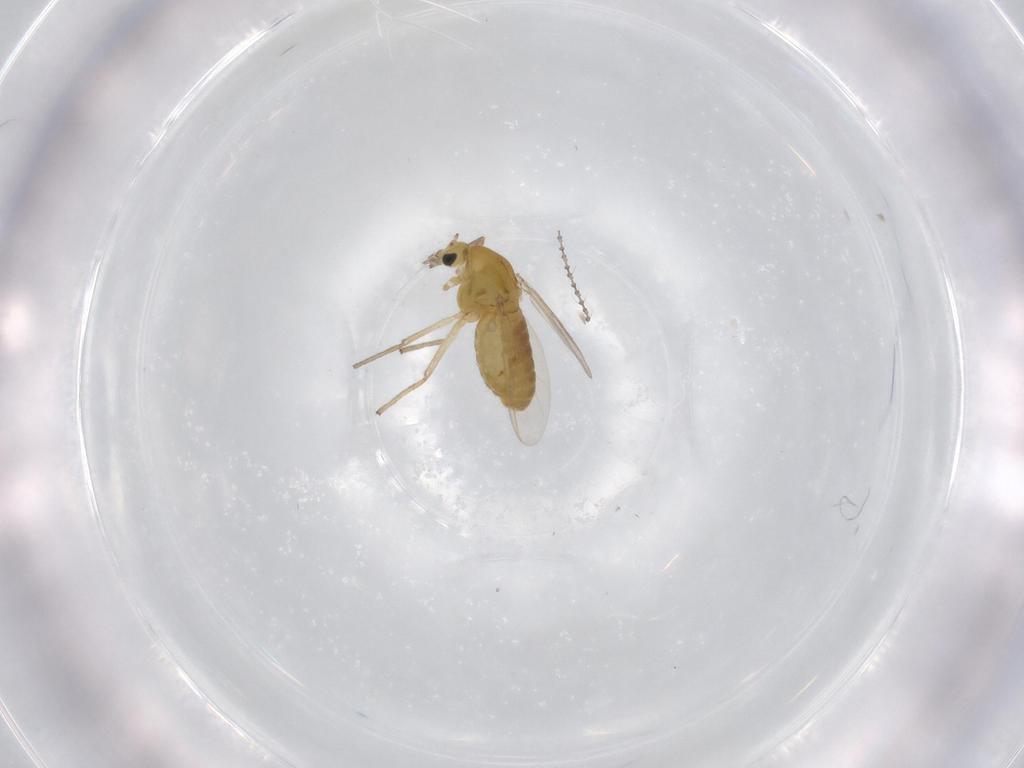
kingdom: Animalia
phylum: Arthropoda
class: Insecta
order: Diptera
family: Chironomidae
